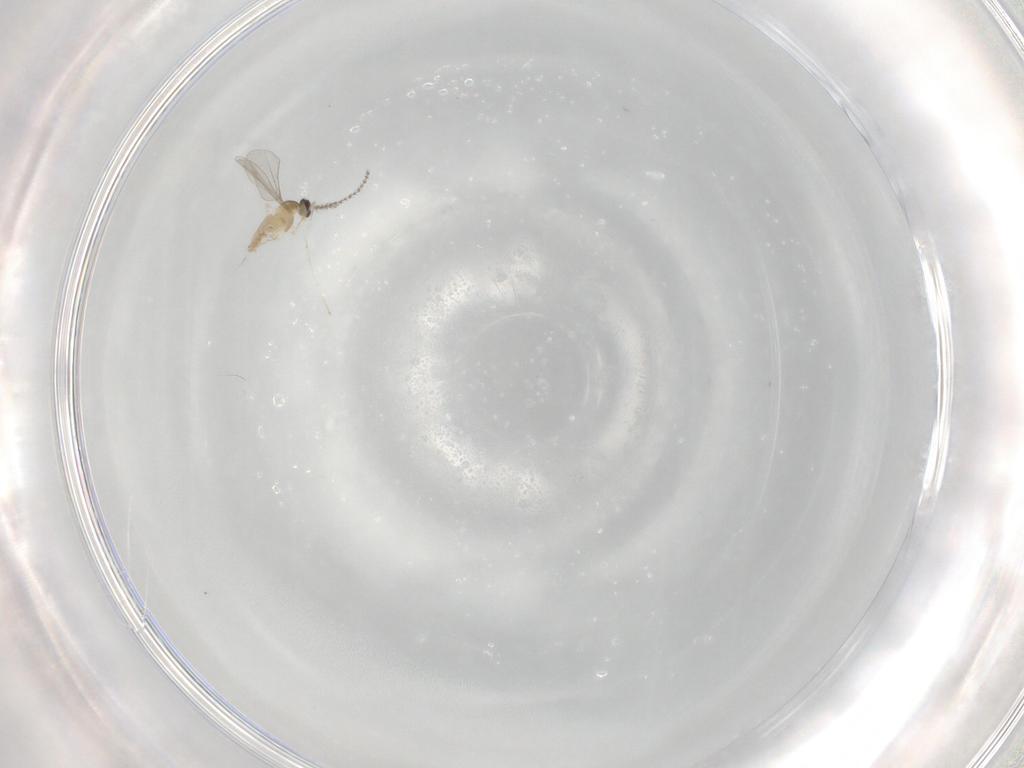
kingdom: Animalia
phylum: Arthropoda
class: Insecta
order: Diptera
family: Cecidomyiidae
